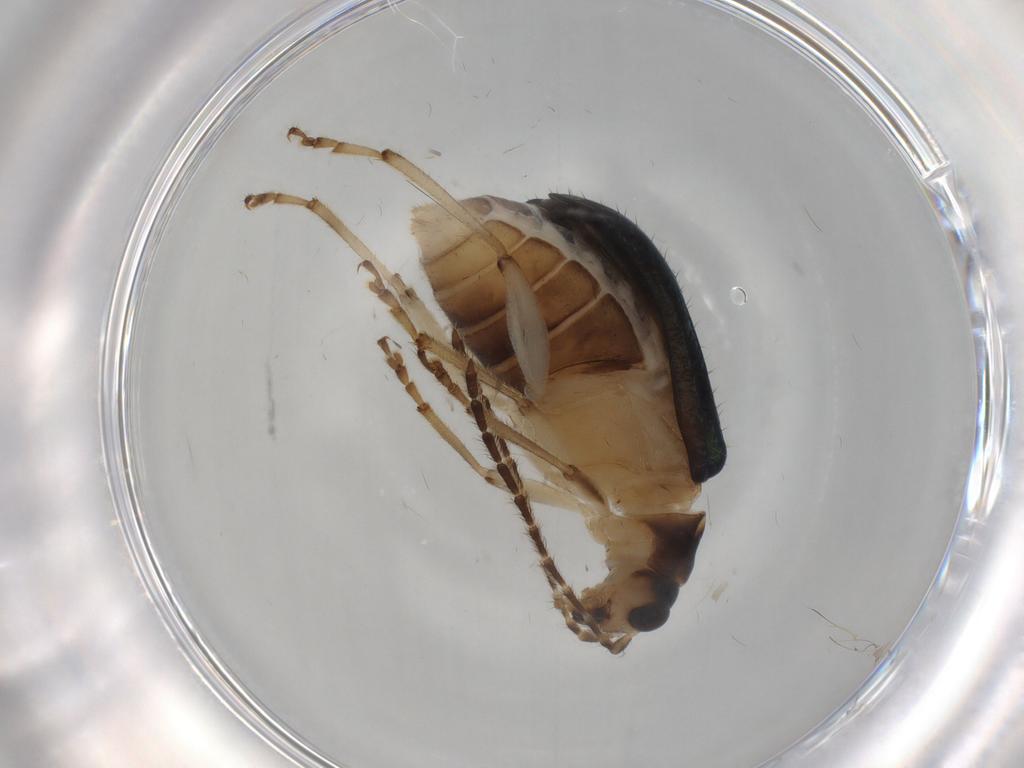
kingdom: Animalia
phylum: Arthropoda
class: Insecta
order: Coleoptera
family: Chrysomelidae
